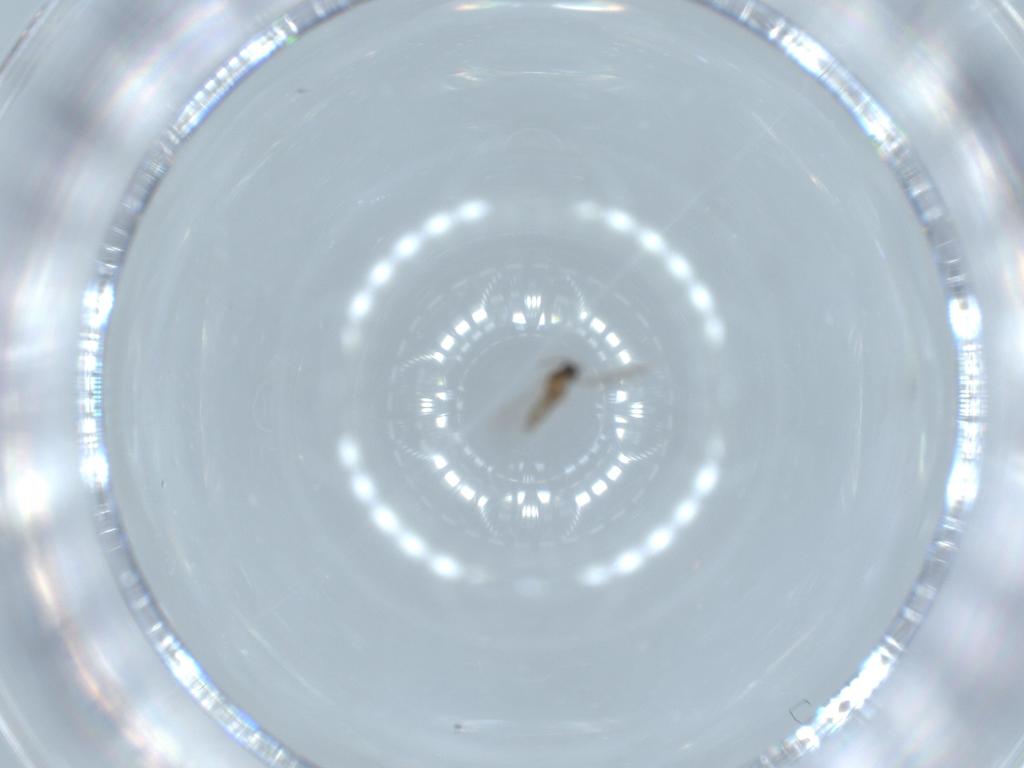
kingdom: Animalia
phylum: Arthropoda
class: Insecta
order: Diptera
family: Cecidomyiidae
